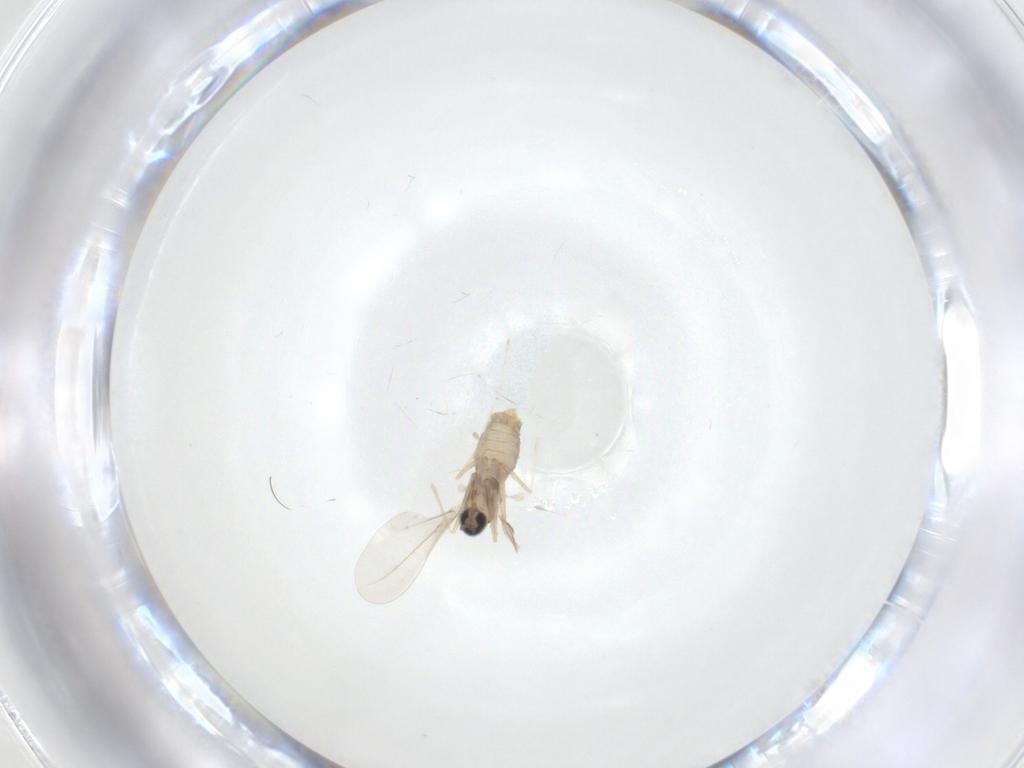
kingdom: Animalia
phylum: Arthropoda
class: Insecta
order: Diptera
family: Cecidomyiidae
